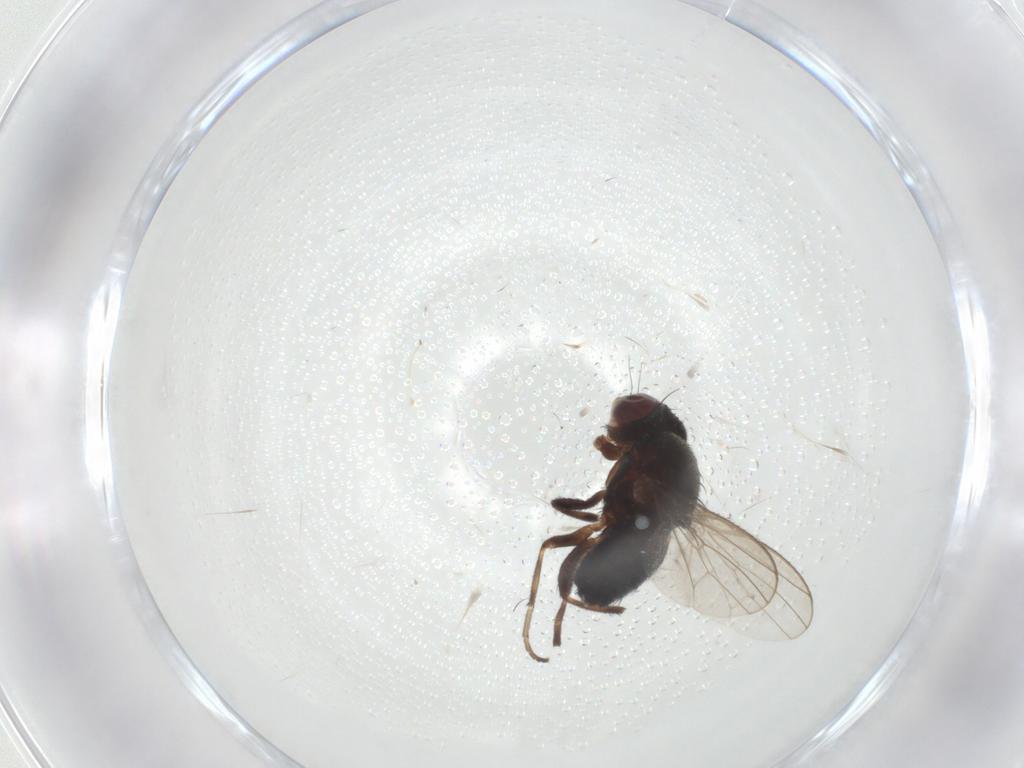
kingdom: Animalia
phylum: Arthropoda
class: Insecta
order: Diptera
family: Heleomyzidae
